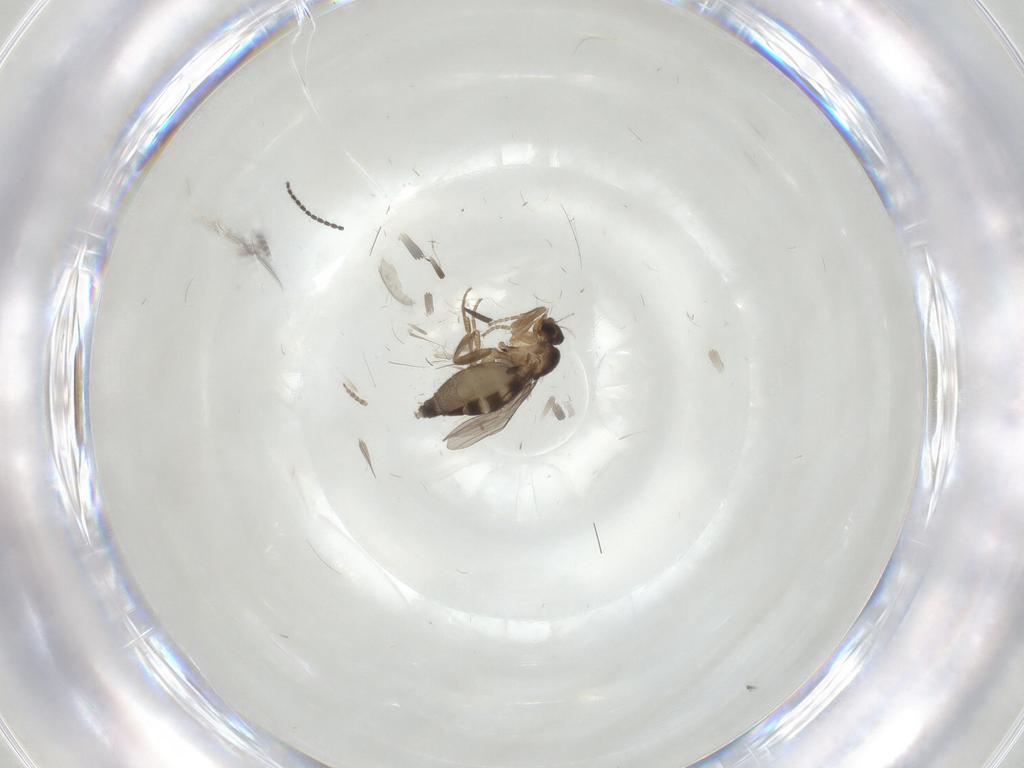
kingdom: Animalia
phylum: Arthropoda
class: Insecta
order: Diptera
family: Phoridae
